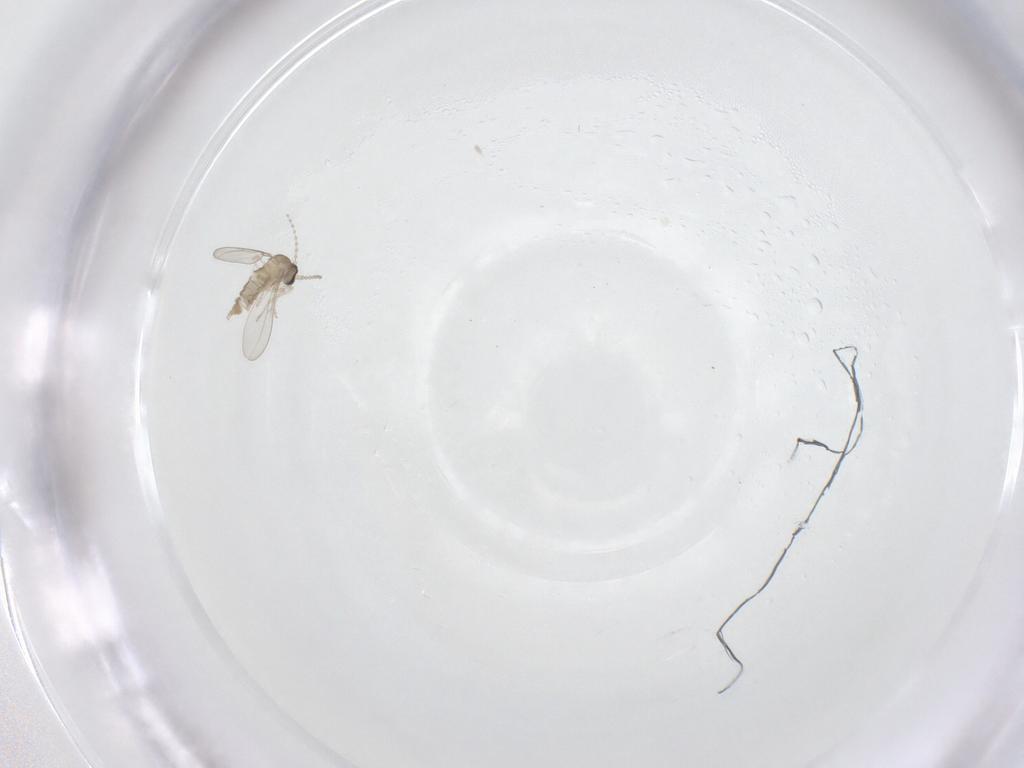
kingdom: Animalia
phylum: Arthropoda
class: Insecta
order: Diptera
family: Cecidomyiidae
